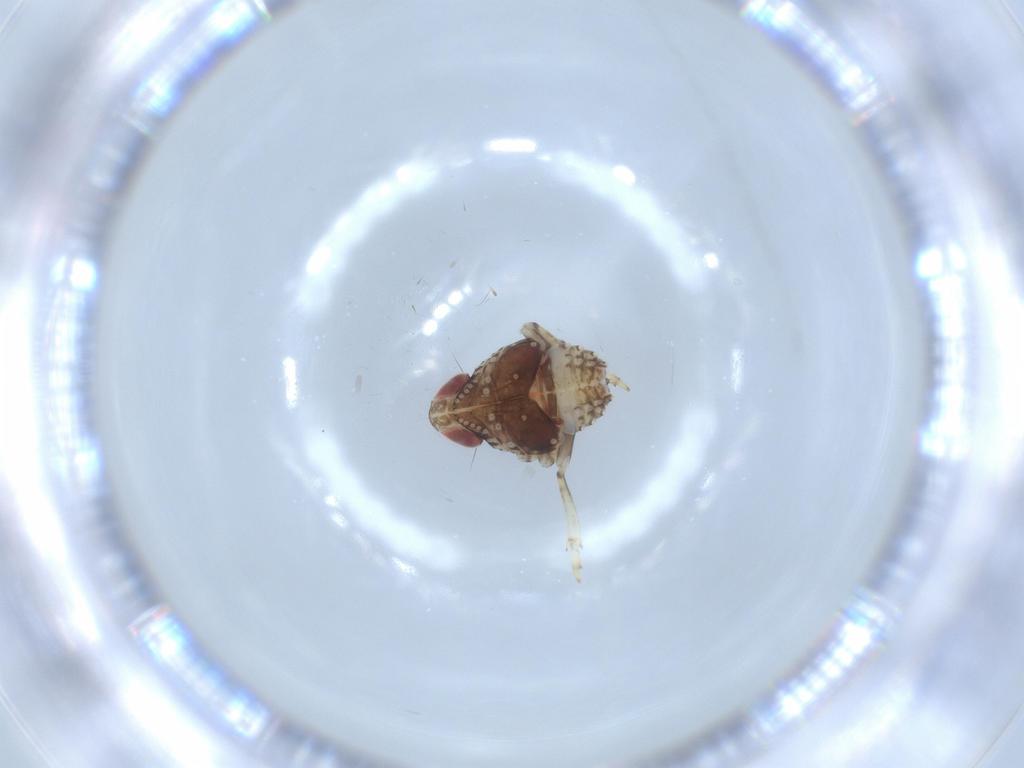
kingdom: Animalia
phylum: Arthropoda
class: Insecta
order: Hemiptera
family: Issidae
